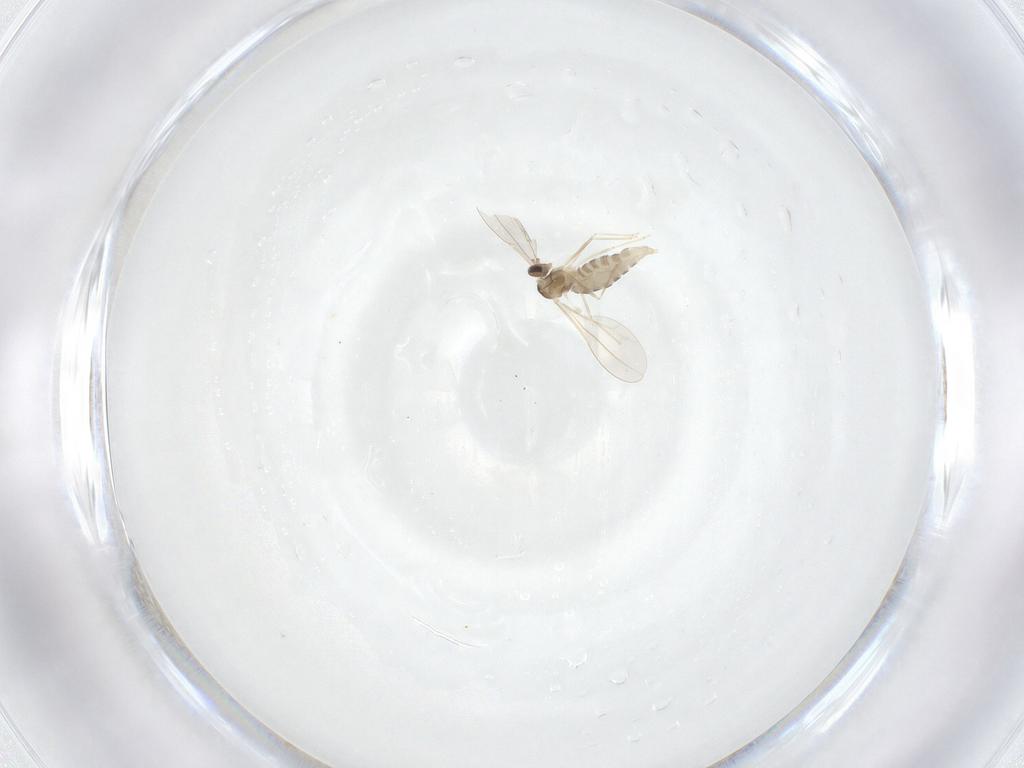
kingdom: Animalia
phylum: Arthropoda
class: Insecta
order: Diptera
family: Cecidomyiidae
